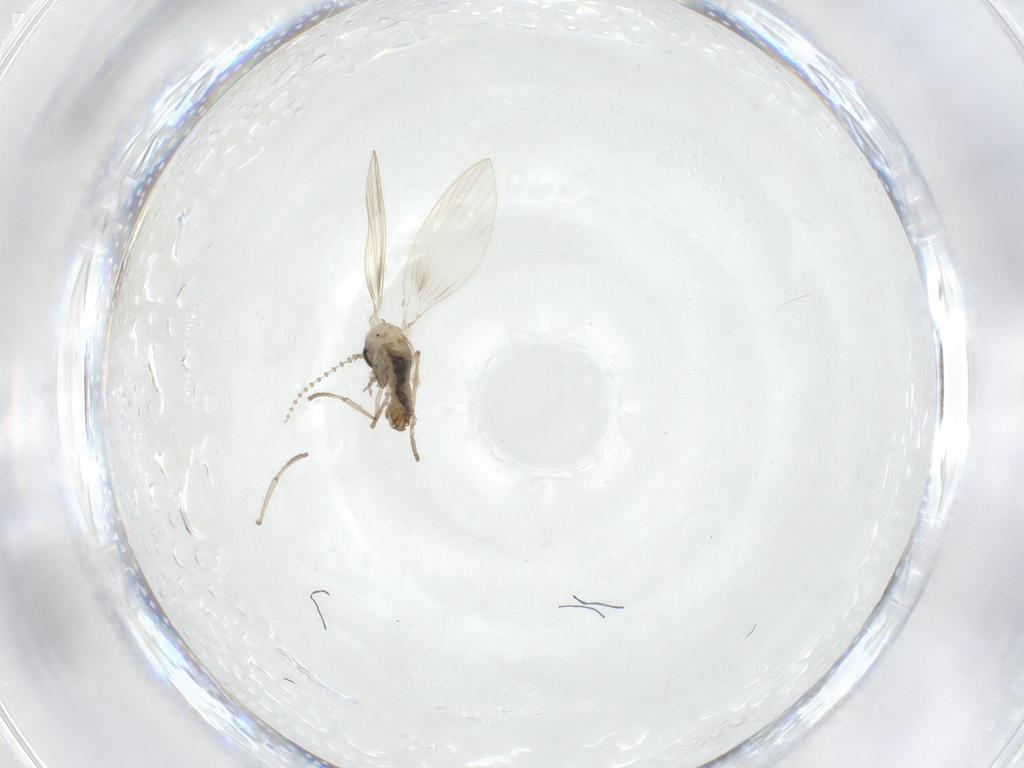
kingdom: Animalia
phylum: Arthropoda
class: Insecta
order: Diptera
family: Psychodidae
